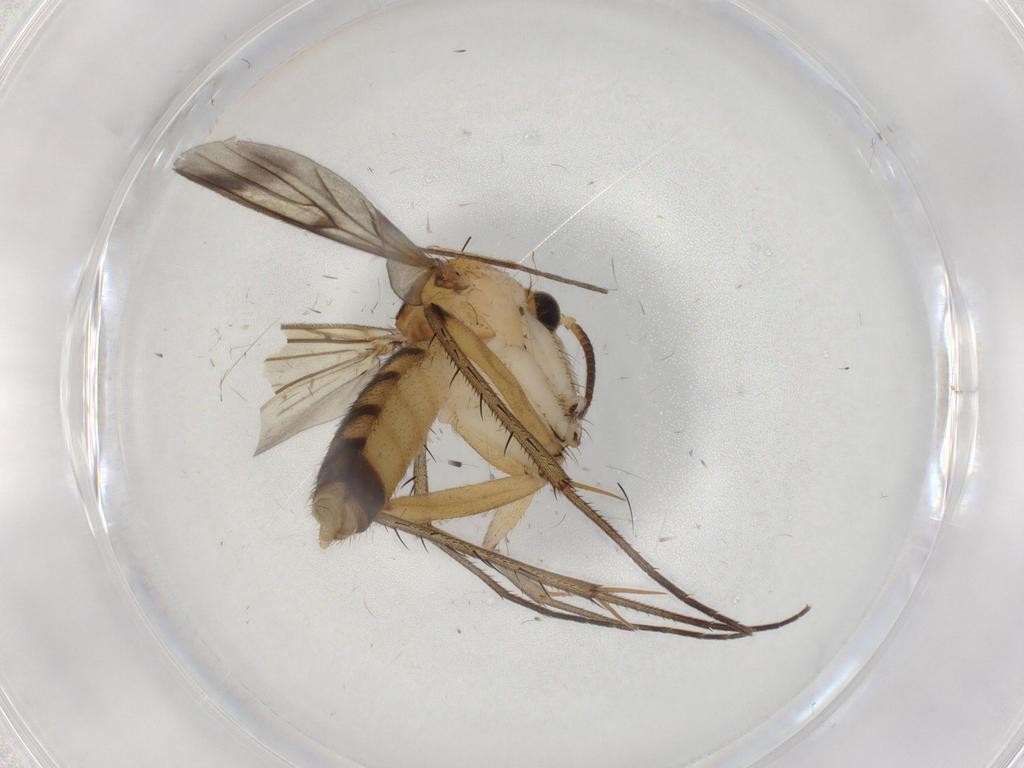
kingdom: Animalia
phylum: Arthropoda
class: Insecta
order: Diptera
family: Mycetophilidae
